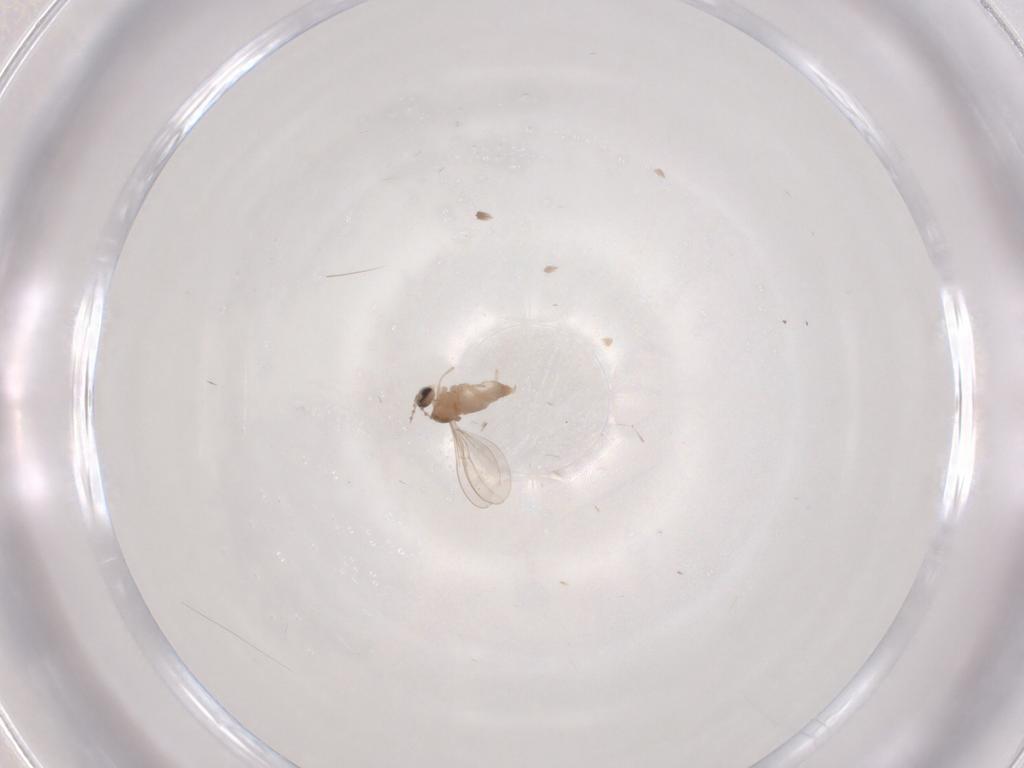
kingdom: Animalia
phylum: Arthropoda
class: Insecta
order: Diptera
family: Cecidomyiidae
